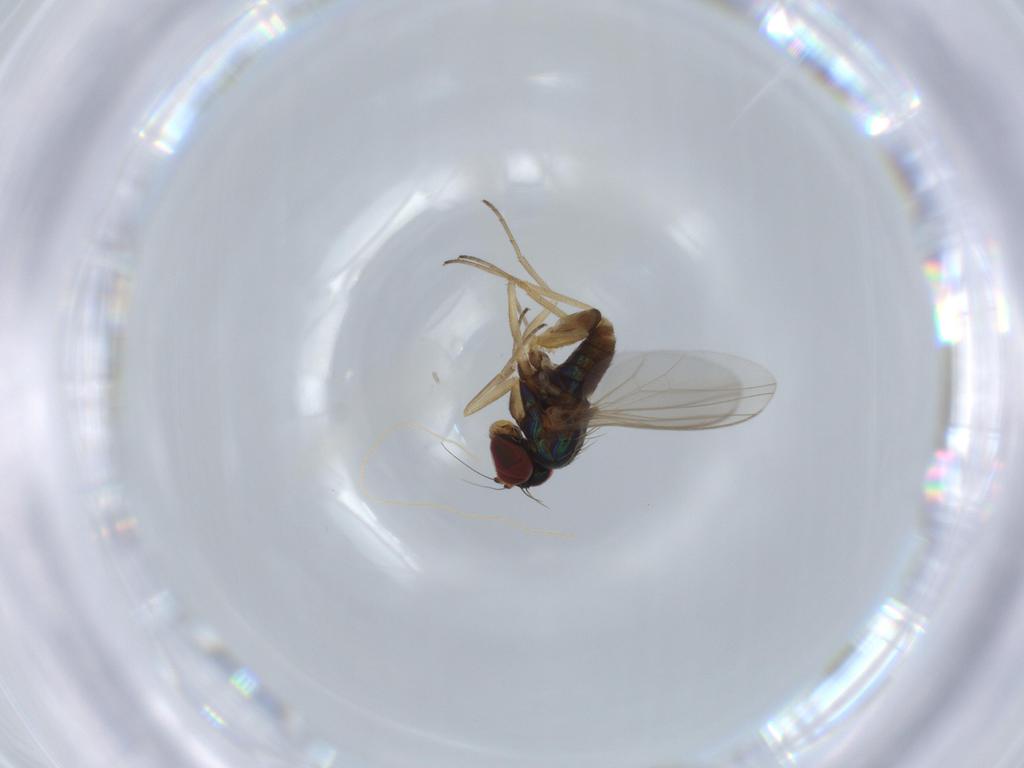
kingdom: Animalia
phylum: Arthropoda
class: Insecta
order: Diptera
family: Dolichopodidae
